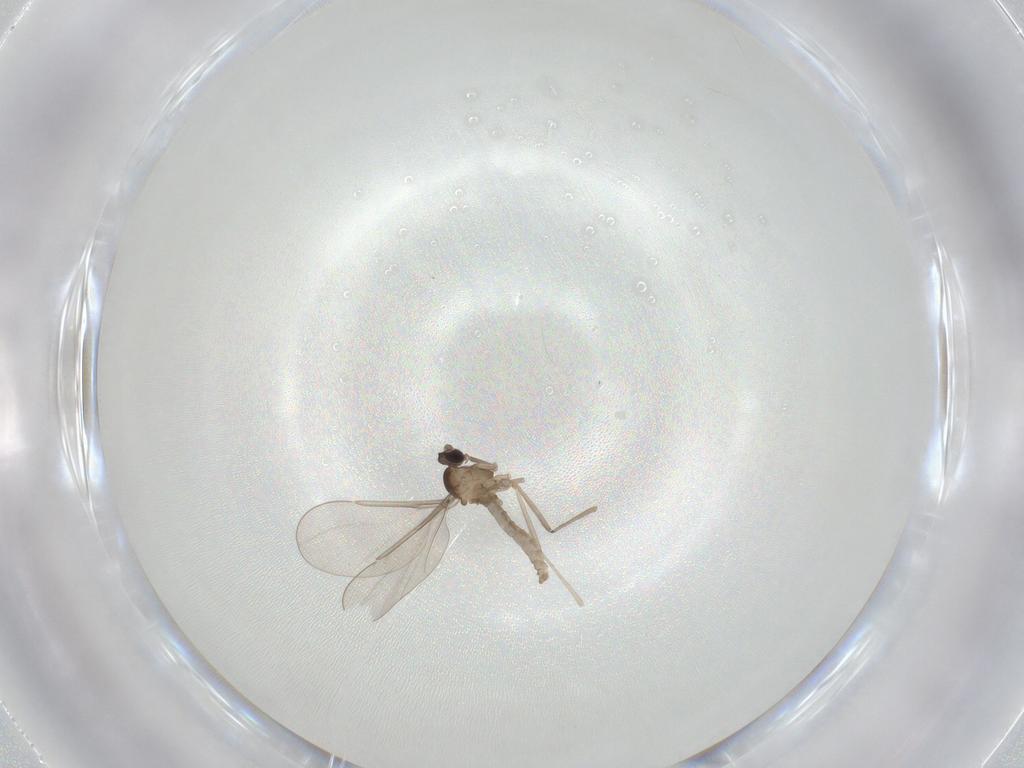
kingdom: Animalia
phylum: Arthropoda
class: Insecta
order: Diptera
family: Cecidomyiidae
